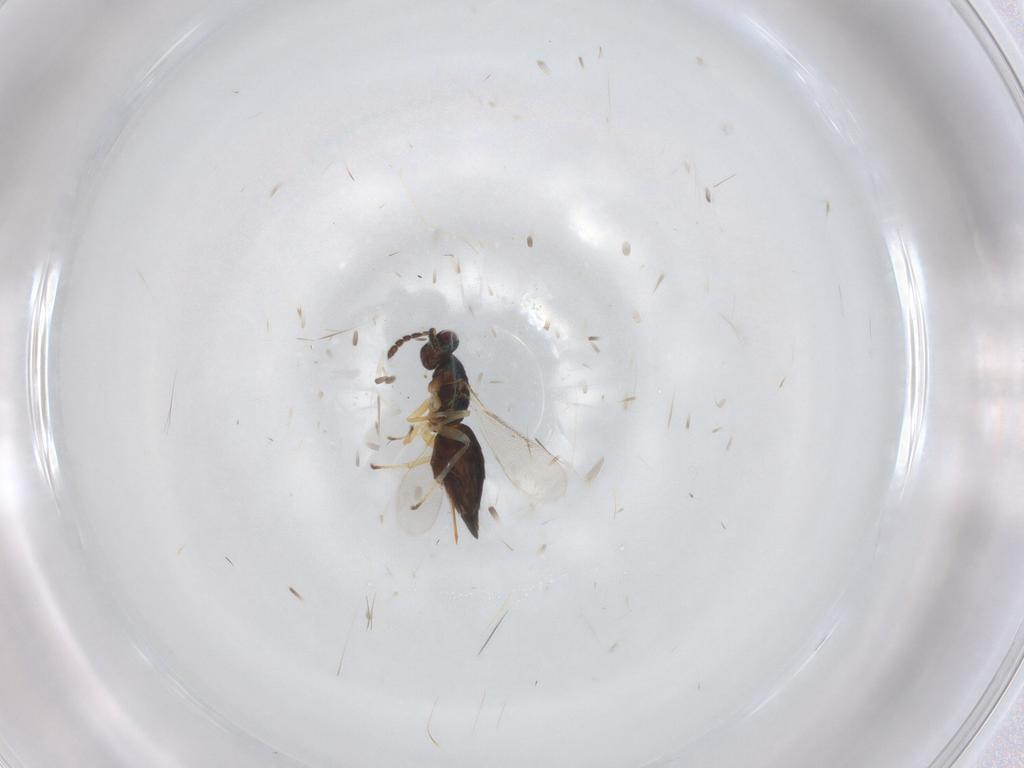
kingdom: Animalia
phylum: Arthropoda
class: Insecta
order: Hymenoptera
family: Eulophidae
